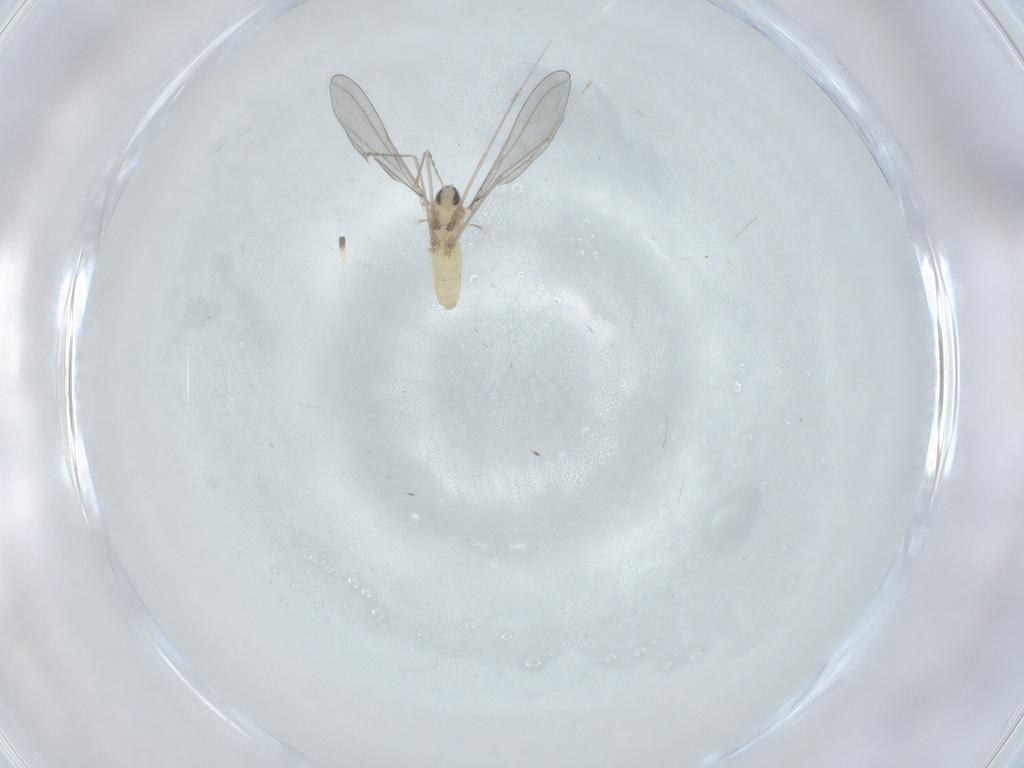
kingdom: Animalia
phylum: Arthropoda
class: Insecta
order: Diptera
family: Cecidomyiidae
